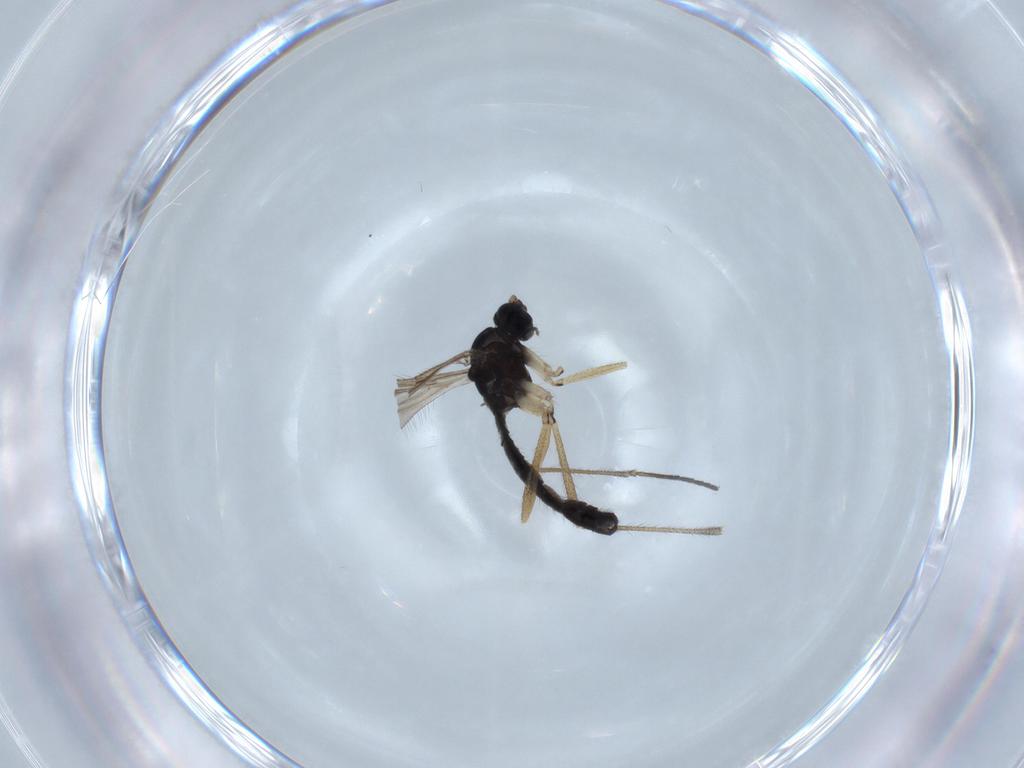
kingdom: Animalia
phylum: Arthropoda
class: Insecta
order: Diptera
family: Sciaridae
